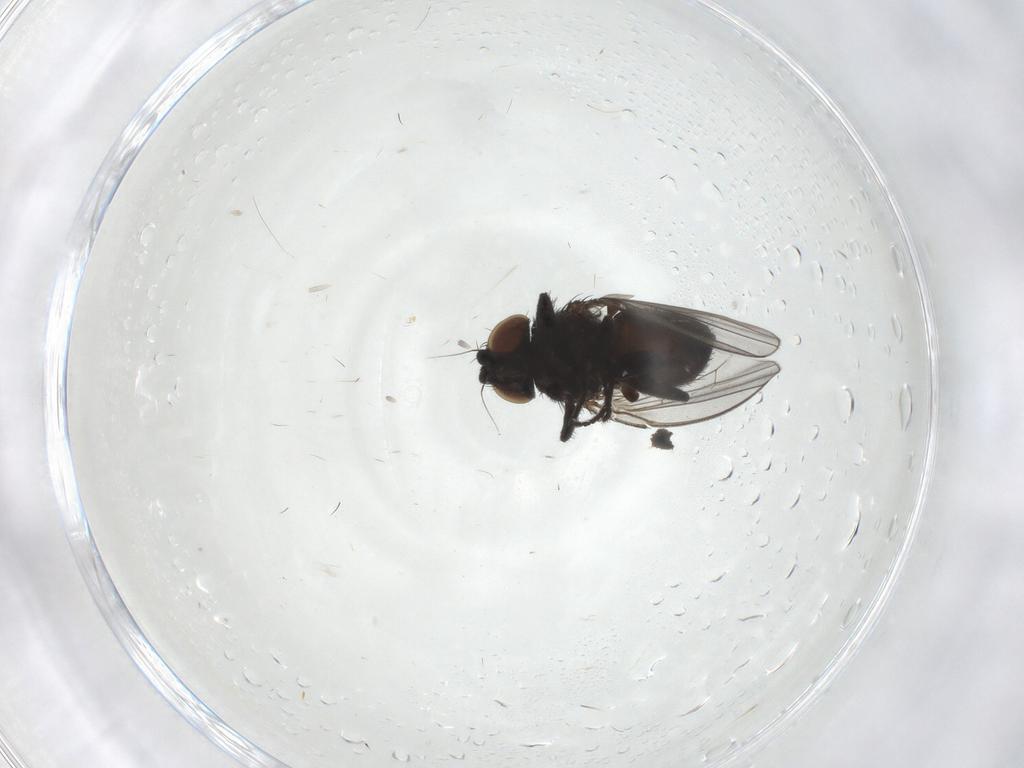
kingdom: Animalia
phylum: Arthropoda
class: Insecta
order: Diptera
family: Milichiidae
